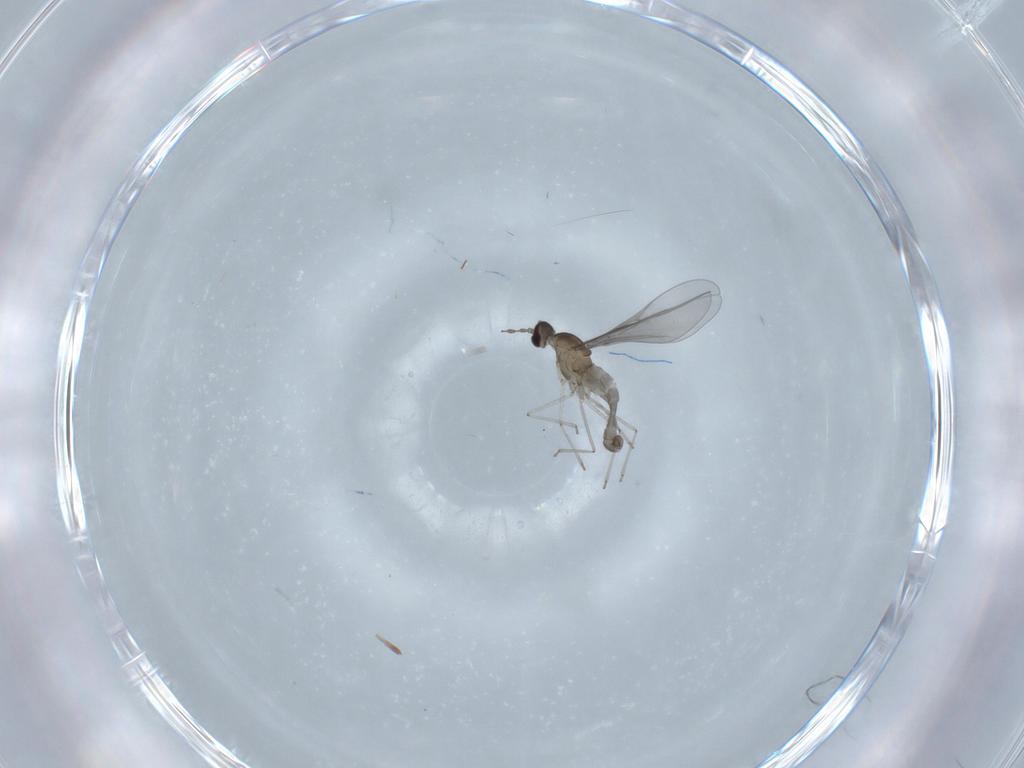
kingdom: Animalia
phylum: Arthropoda
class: Insecta
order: Diptera
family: Cecidomyiidae
